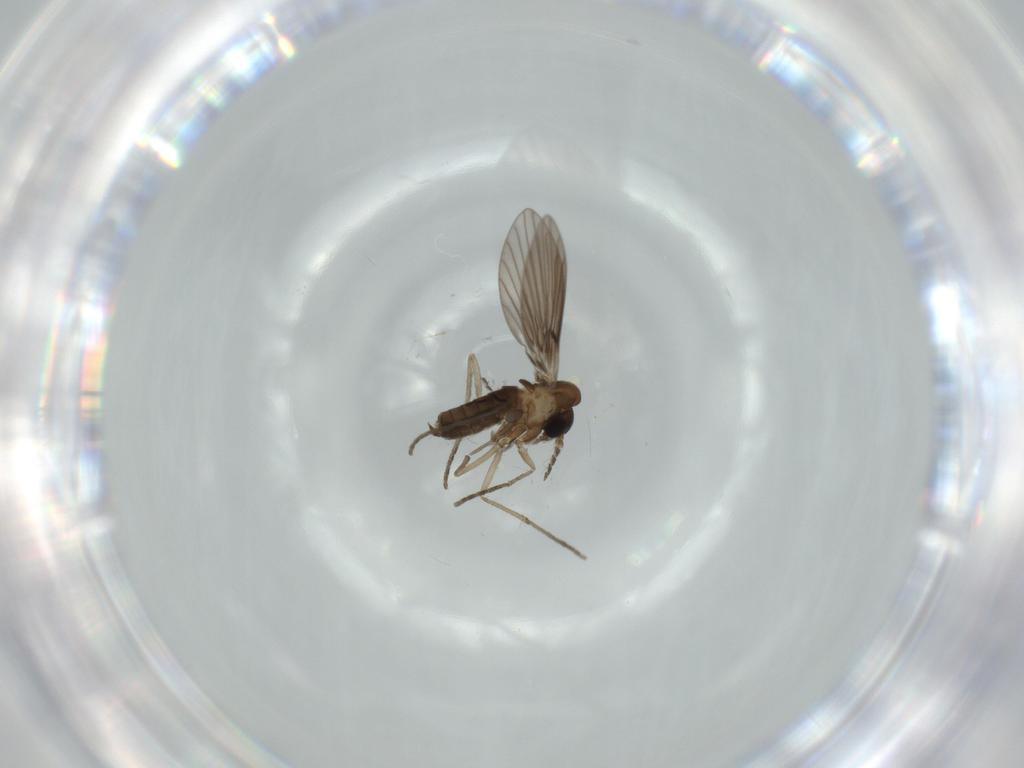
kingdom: Animalia
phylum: Arthropoda
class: Insecta
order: Diptera
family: Psychodidae
